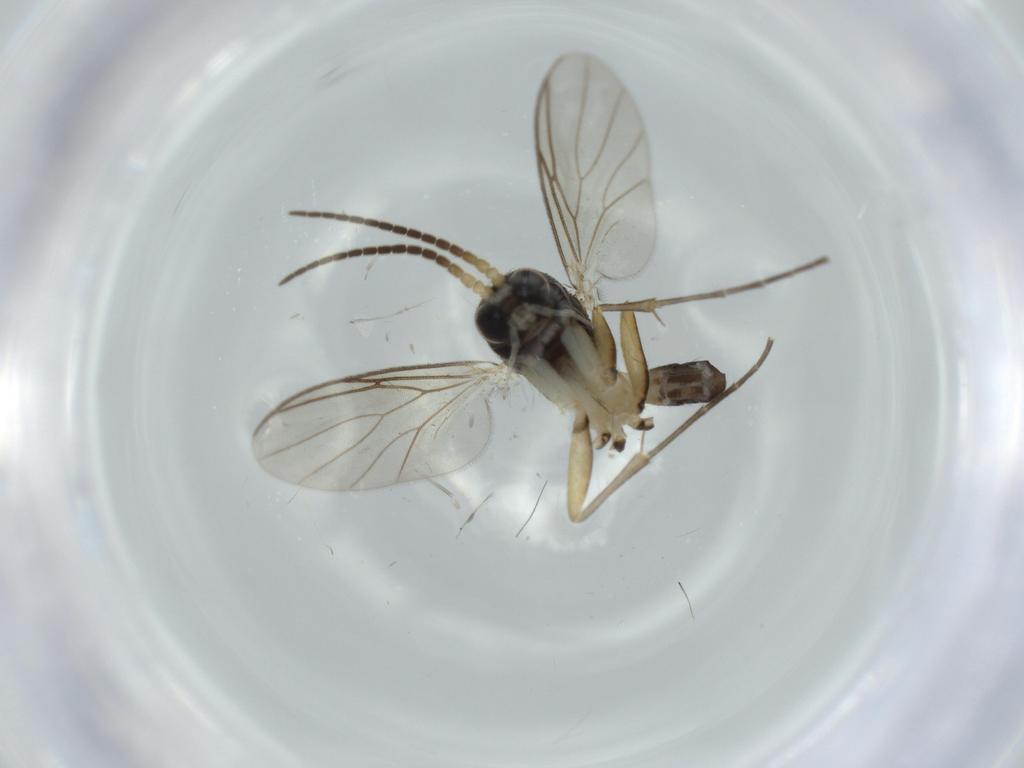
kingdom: Animalia
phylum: Arthropoda
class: Insecta
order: Diptera
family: Mycetophilidae
